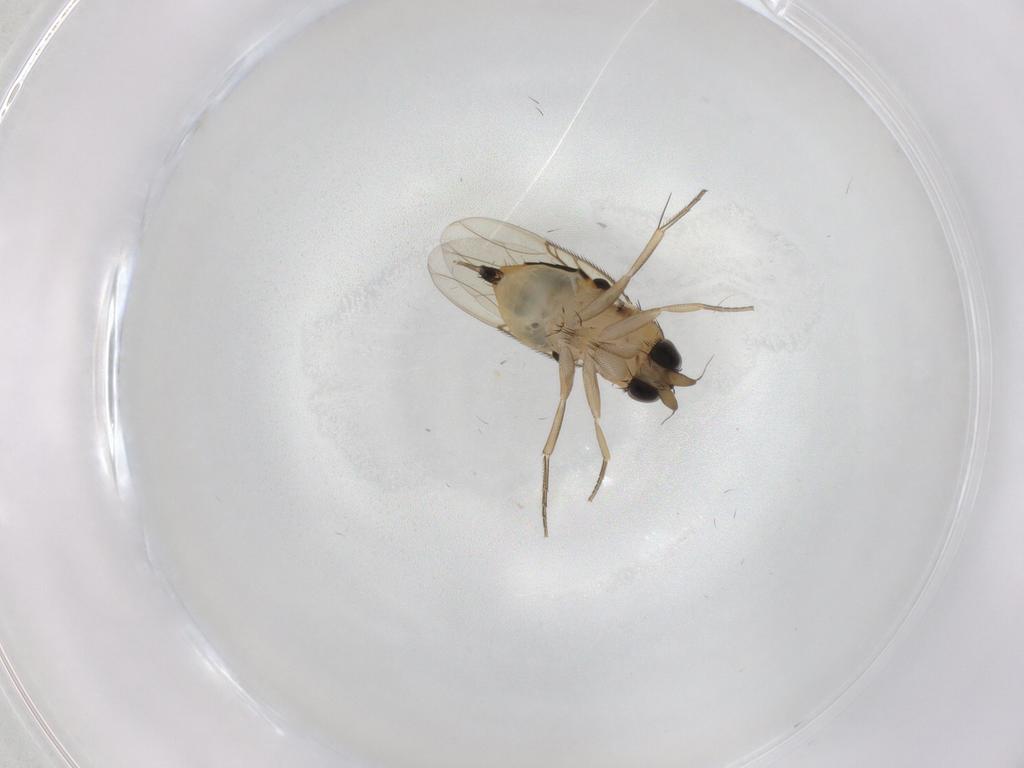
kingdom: Animalia
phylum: Arthropoda
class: Insecta
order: Diptera
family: Phoridae
